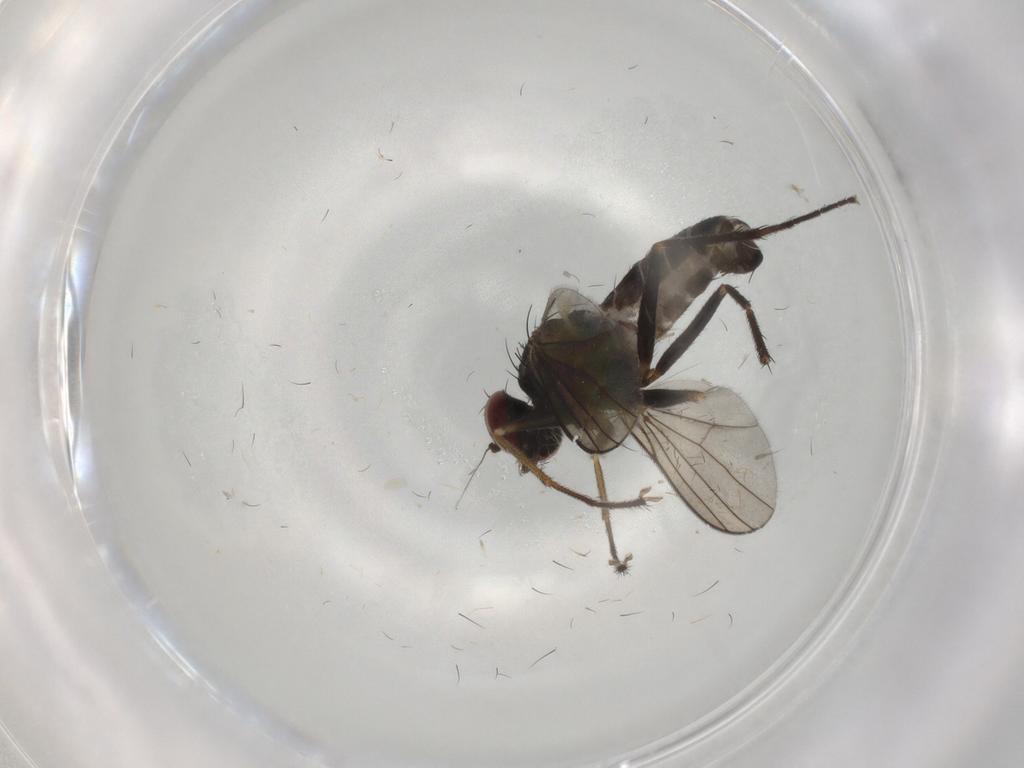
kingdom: Animalia
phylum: Arthropoda
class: Insecta
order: Diptera
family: Dolichopodidae
